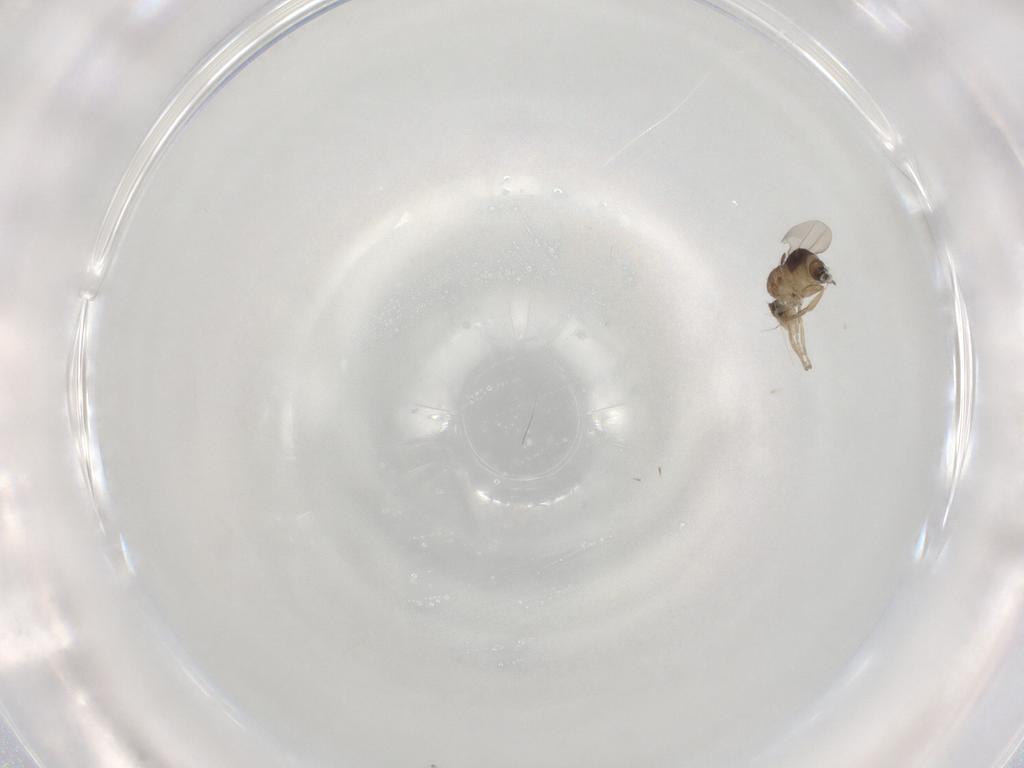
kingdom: Animalia
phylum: Arthropoda
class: Insecta
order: Diptera
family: Phoridae
